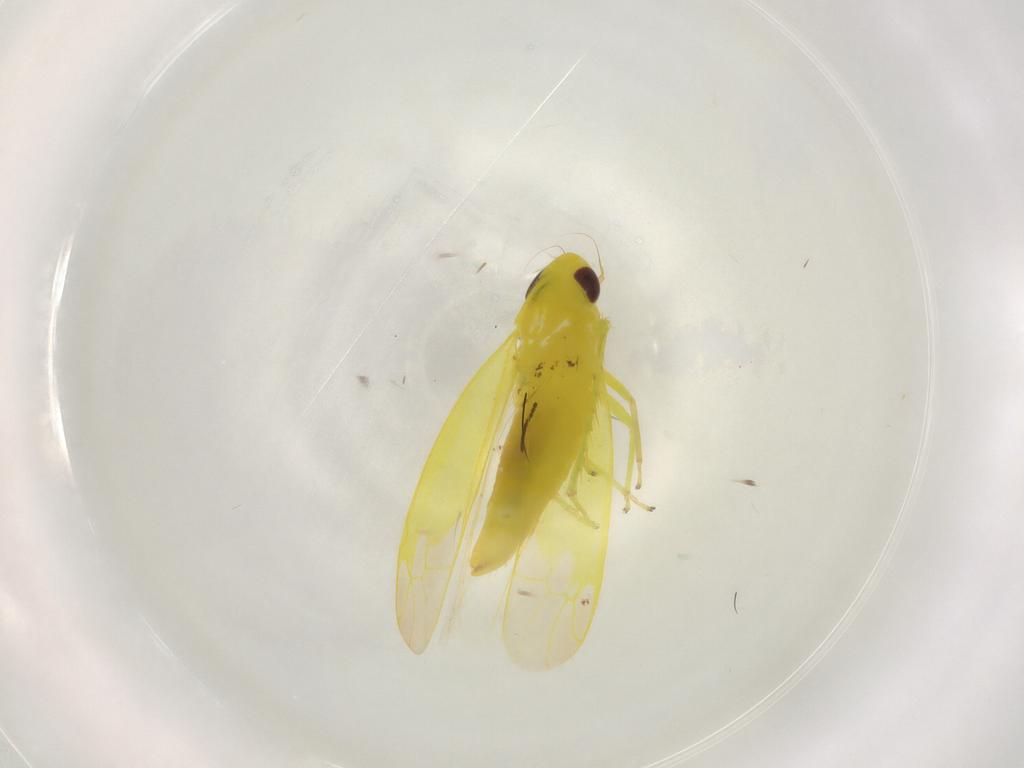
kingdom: Animalia
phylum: Arthropoda
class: Insecta
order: Hemiptera
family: Cicadellidae
